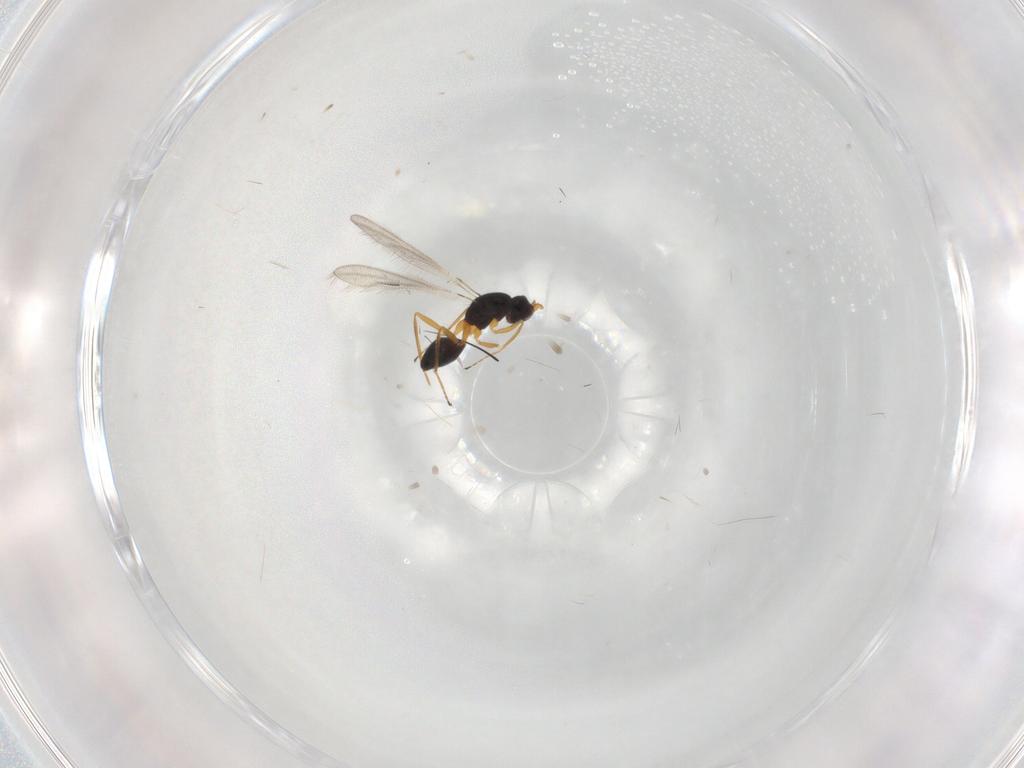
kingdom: Animalia
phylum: Arthropoda
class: Insecta
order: Hymenoptera
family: Mymaridae
